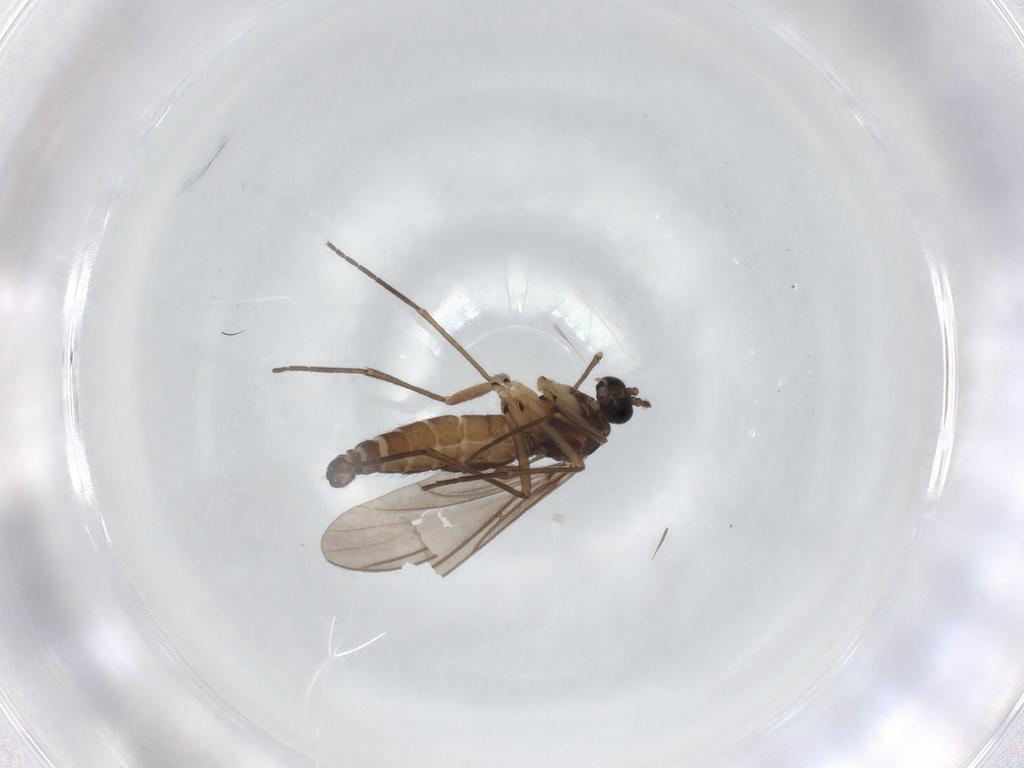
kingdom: Animalia
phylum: Arthropoda
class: Insecta
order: Diptera
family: Sciaridae
